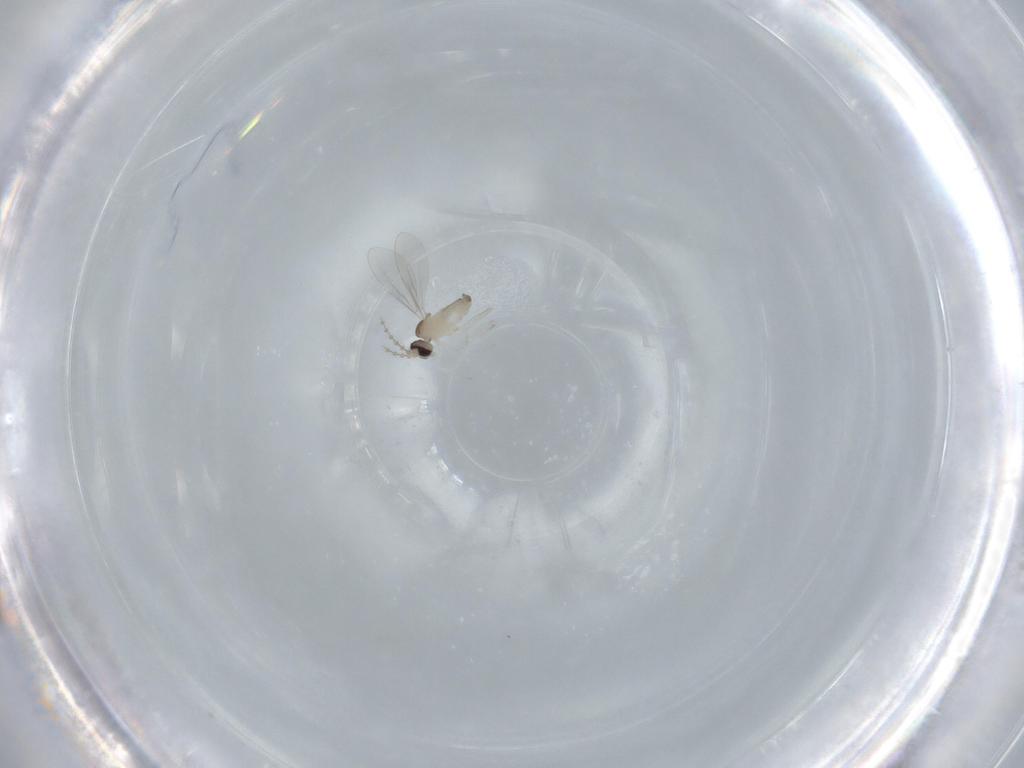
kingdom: Animalia
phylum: Arthropoda
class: Insecta
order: Diptera
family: Cecidomyiidae
